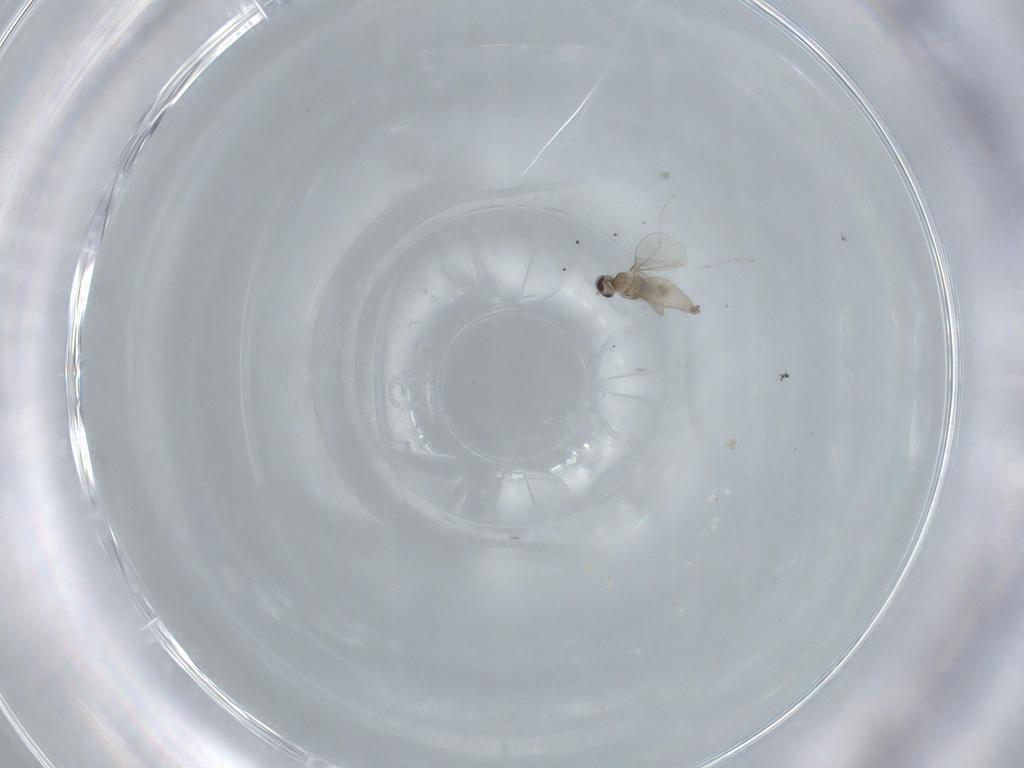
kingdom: Animalia
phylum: Arthropoda
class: Insecta
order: Diptera
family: Cecidomyiidae
